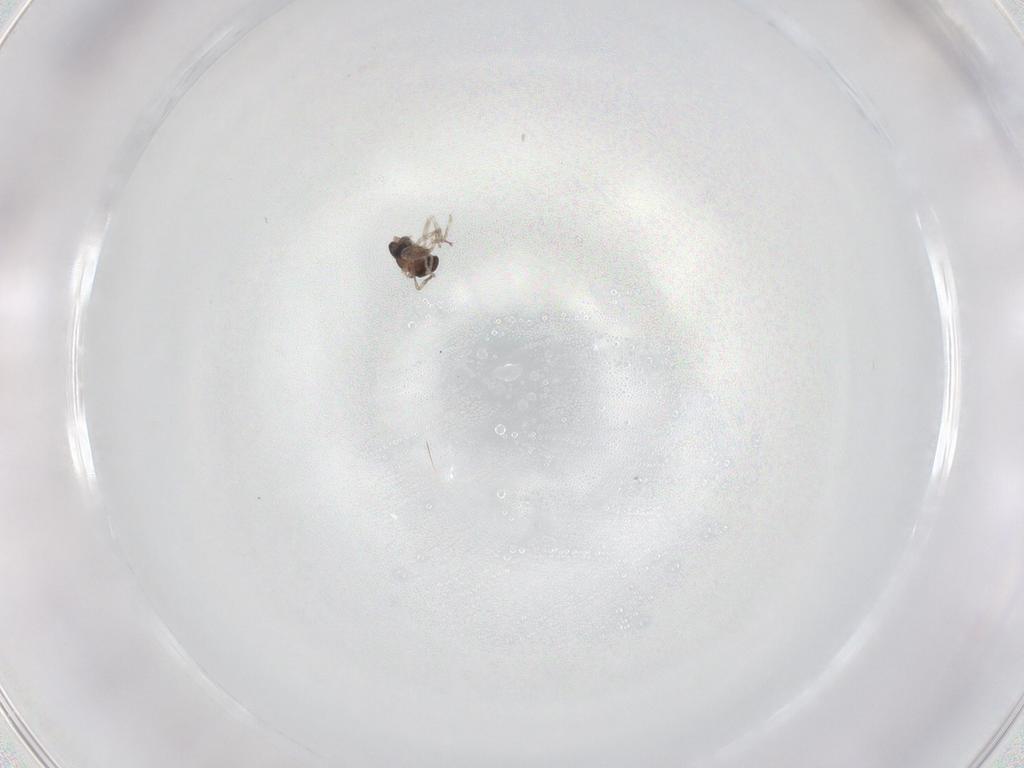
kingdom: Animalia
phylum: Arthropoda
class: Insecta
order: Diptera
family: Cecidomyiidae
